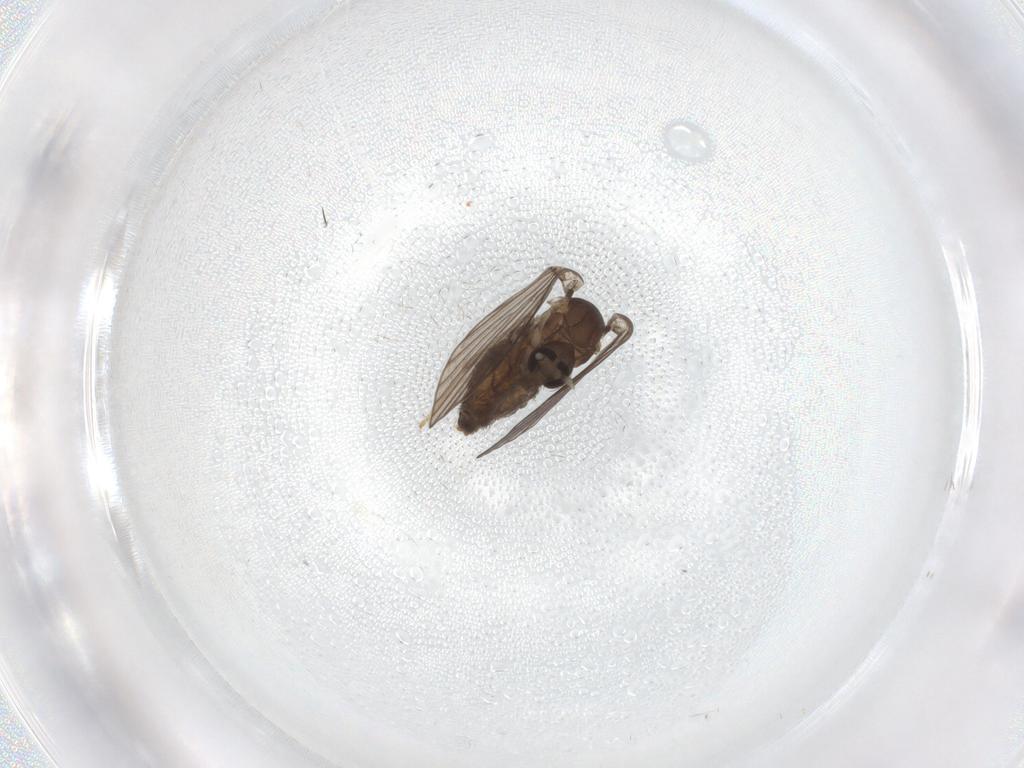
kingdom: Animalia
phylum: Arthropoda
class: Insecta
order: Diptera
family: Psychodidae
